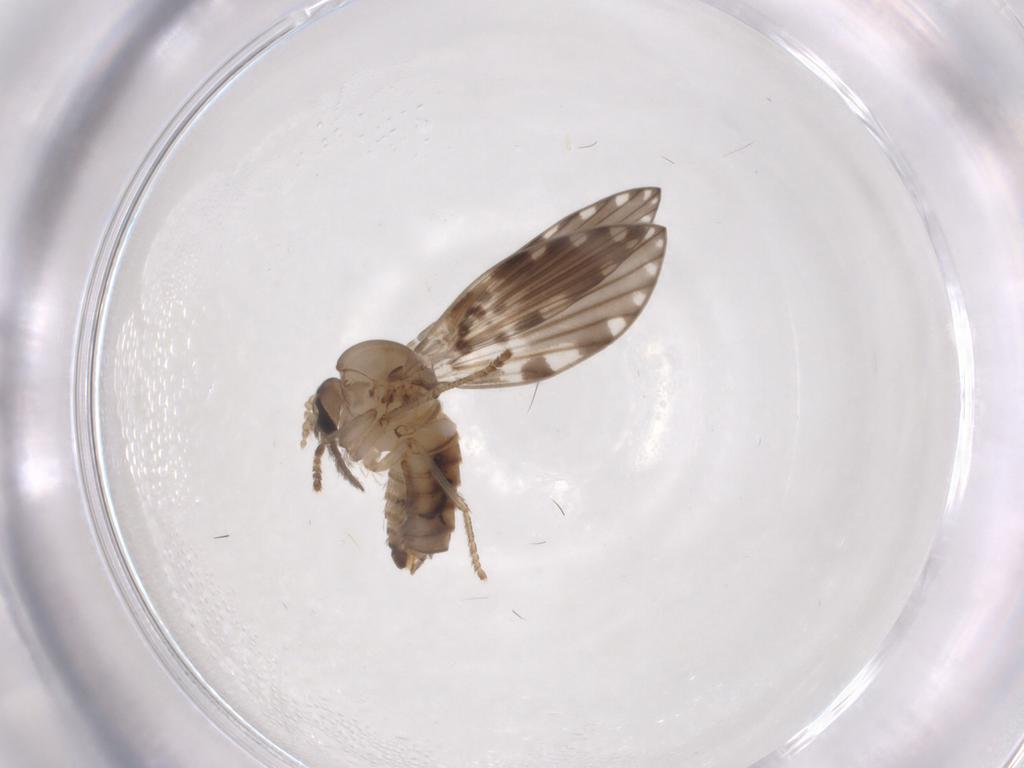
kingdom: Animalia
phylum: Arthropoda
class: Insecta
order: Diptera
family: Psychodidae
